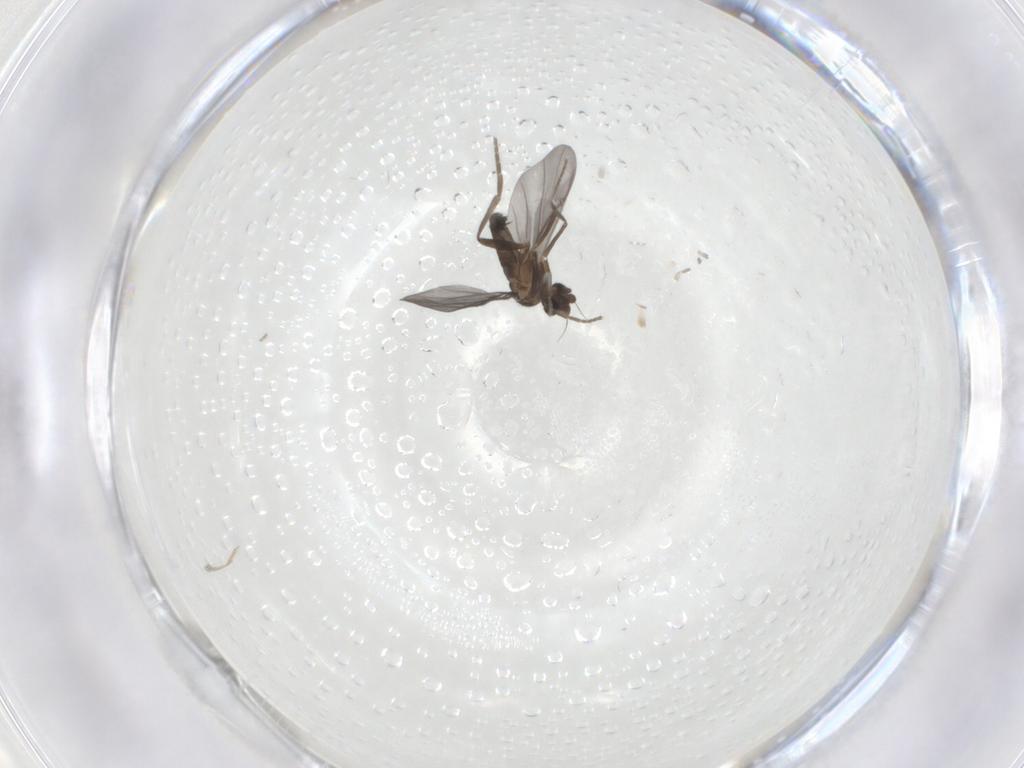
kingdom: Animalia
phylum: Arthropoda
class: Insecta
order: Diptera
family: Phoridae
